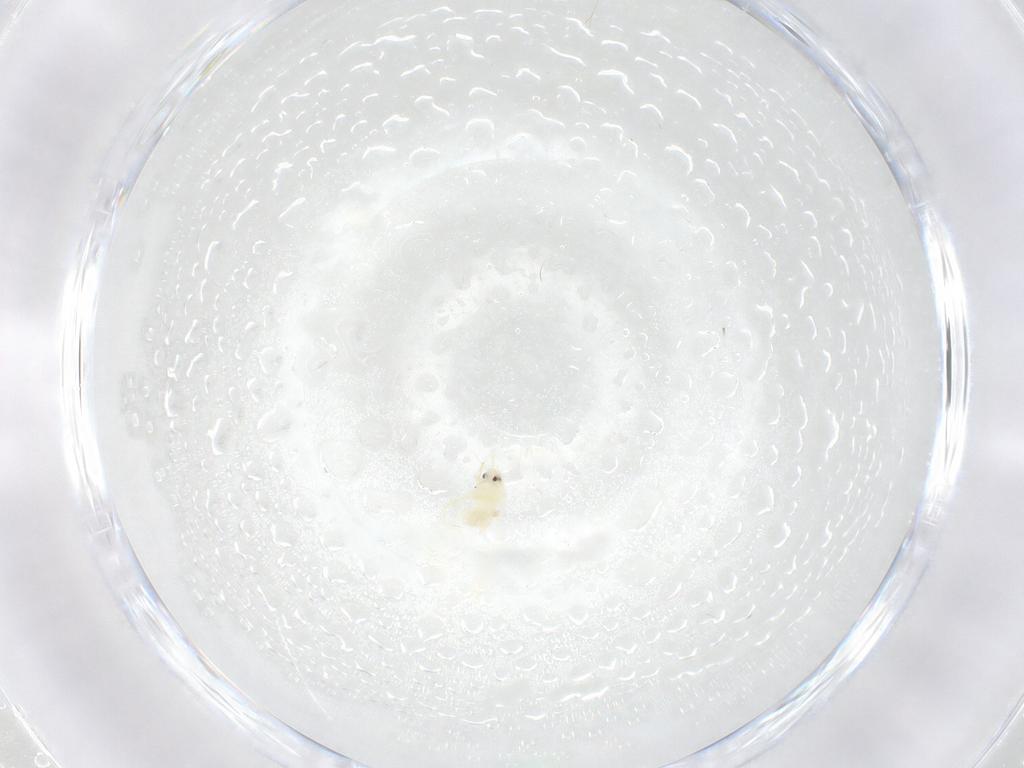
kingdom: Animalia
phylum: Arthropoda
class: Insecta
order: Hemiptera
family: Aleyrodidae
